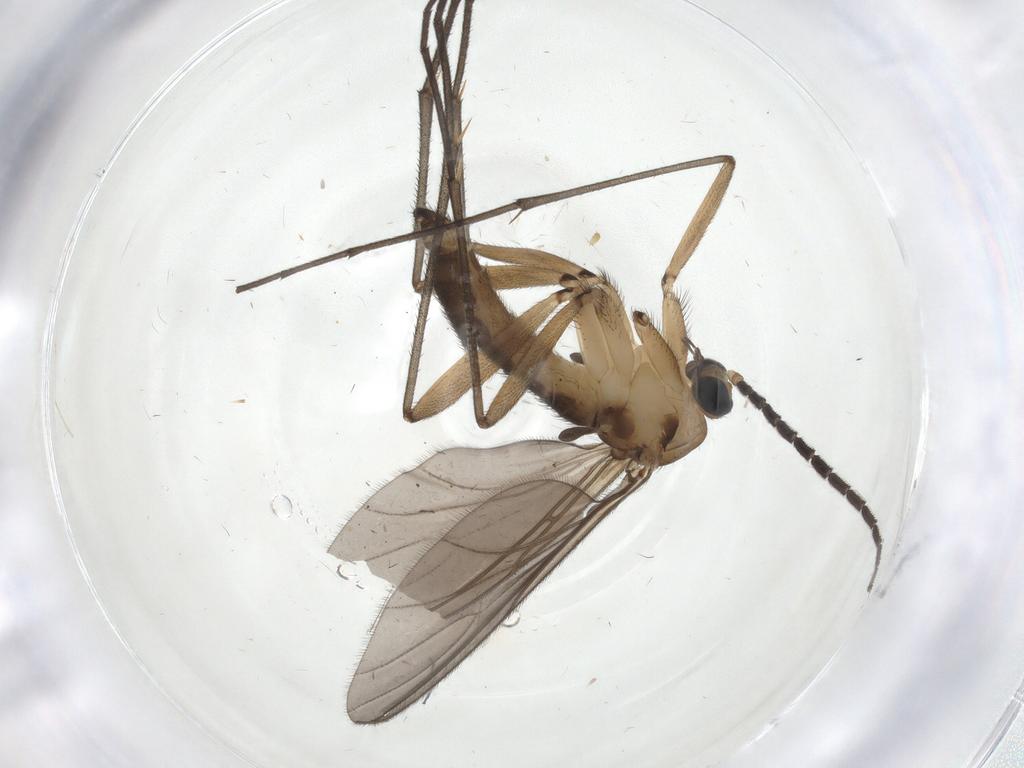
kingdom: Animalia
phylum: Arthropoda
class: Insecta
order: Diptera
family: Sciaridae
